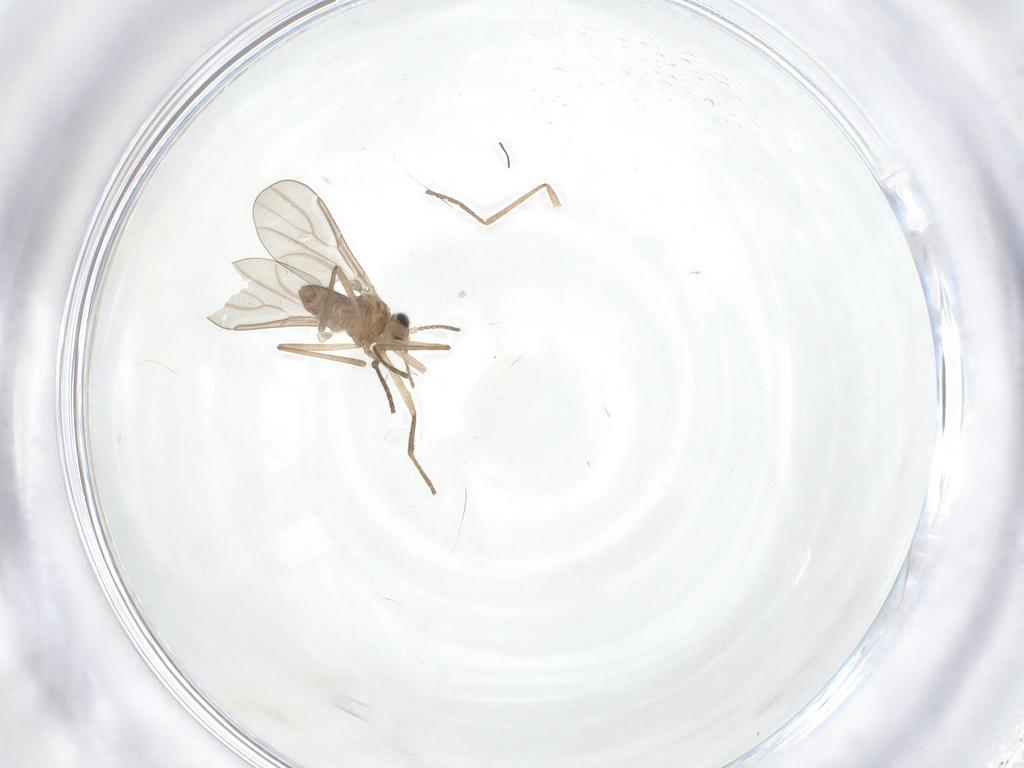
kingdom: Animalia
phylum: Arthropoda
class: Insecta
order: Diptera
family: Cecidomyiidae
